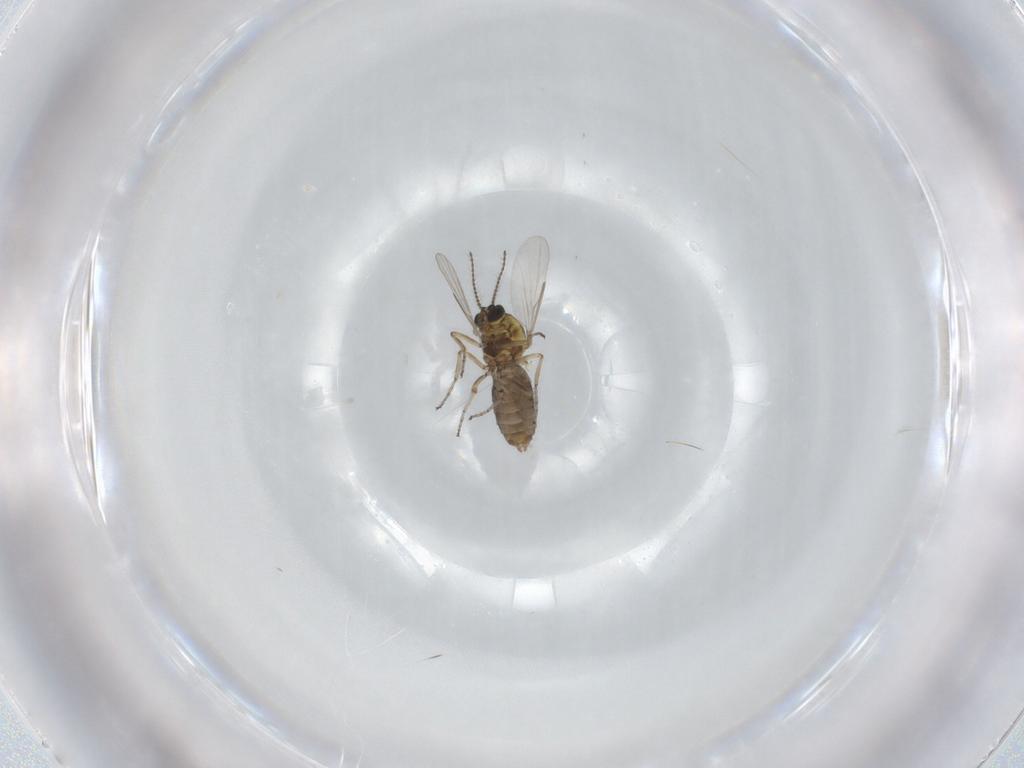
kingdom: Animalia
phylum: Arthropoda
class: Insecta
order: Diptera
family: Ceratopogonidae
